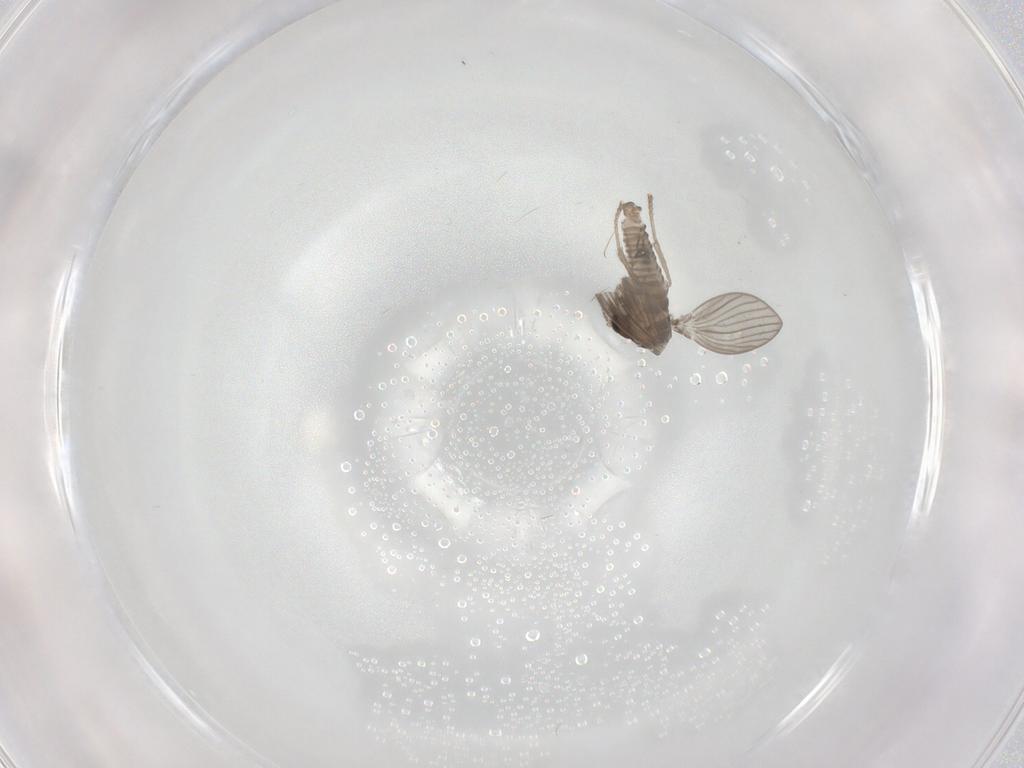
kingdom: Animalia
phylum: Arthropoda
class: Insecta
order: Diptera
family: Psychodidae
